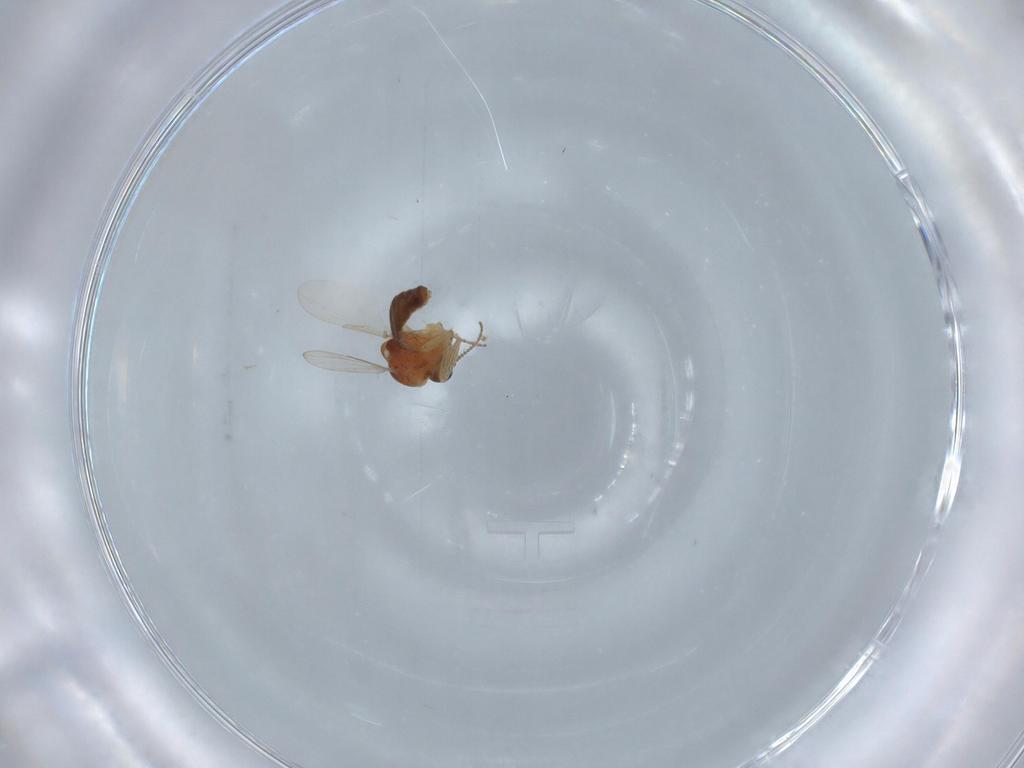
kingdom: Animalia
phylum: Arthropoda
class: Insecta
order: Diptera
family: Ceratopogonidae
